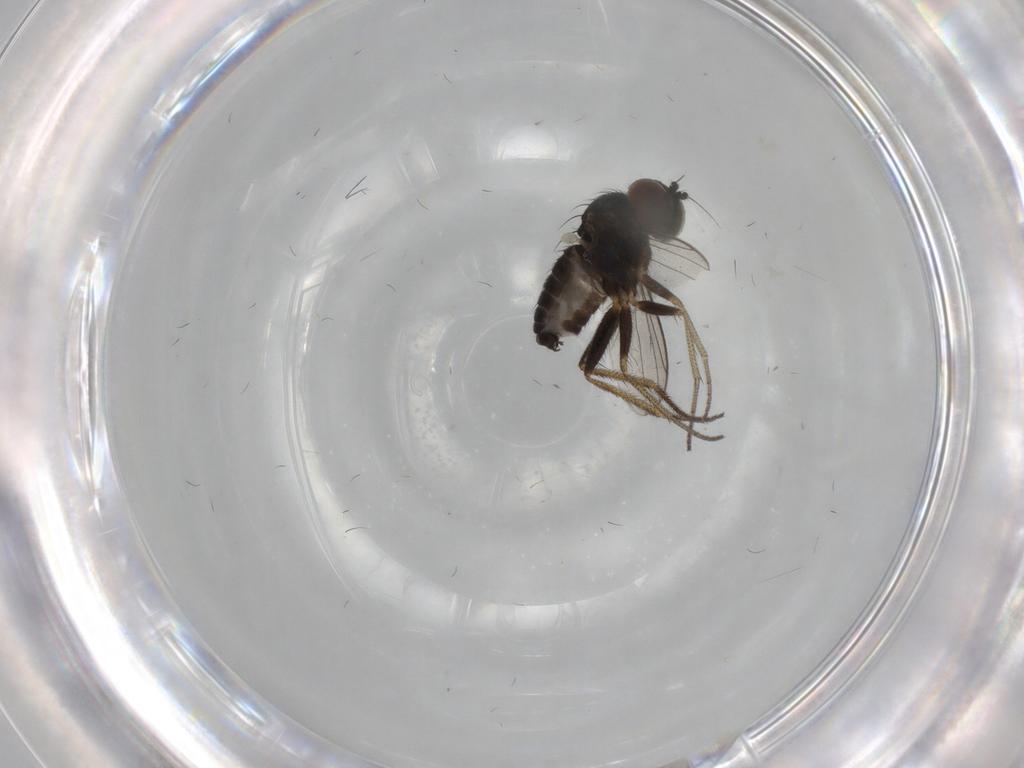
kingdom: Animalia
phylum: Arthropoda
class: Insecta
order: Diptera
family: Dolichopodidae
